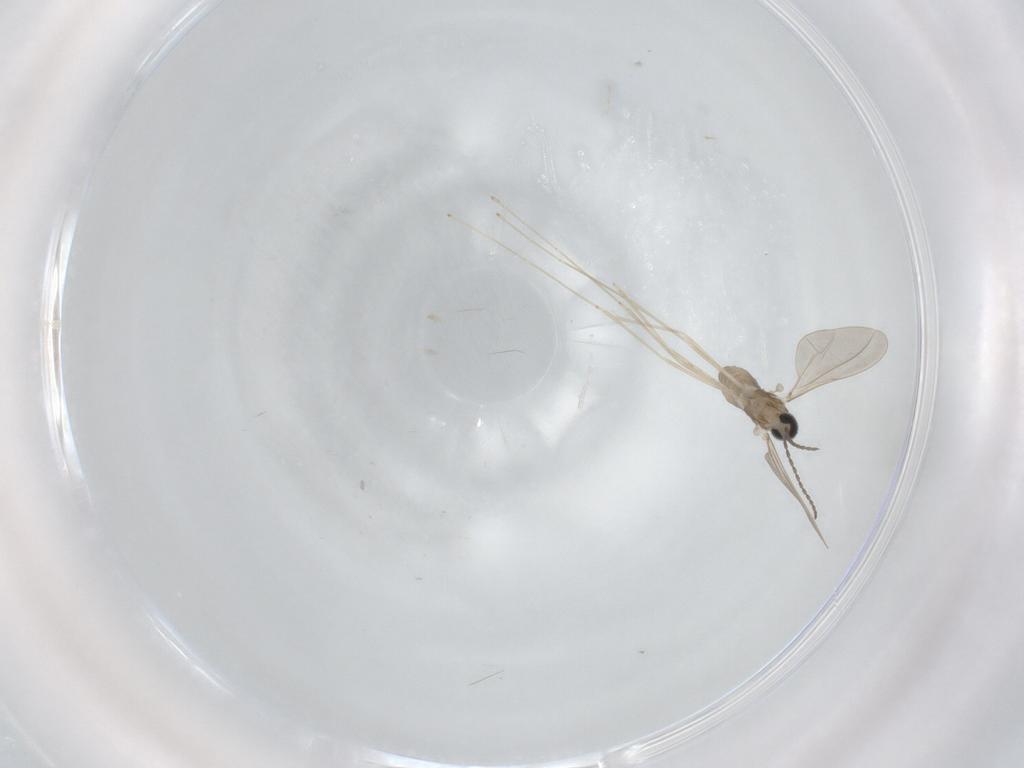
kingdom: Animalia
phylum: Arthropoda
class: Insecta
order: Diptera
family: Cecidomyiidae
